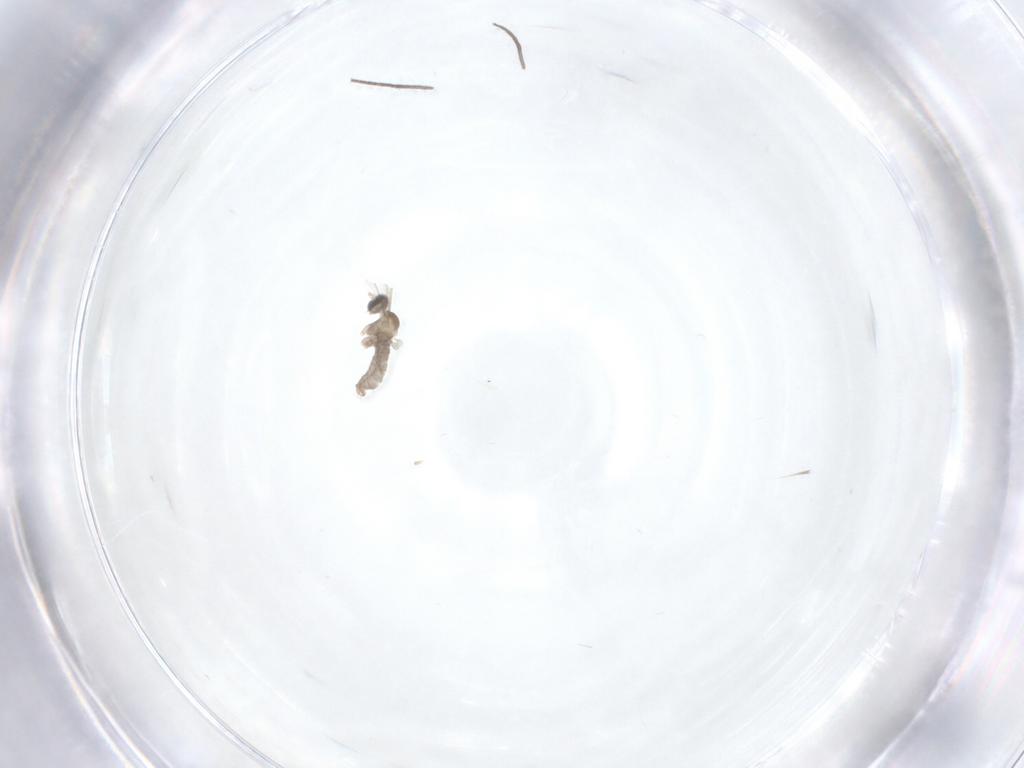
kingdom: Animalia
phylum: Arthropoda
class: Insecta
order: Diptera
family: Cecidomyiidae
